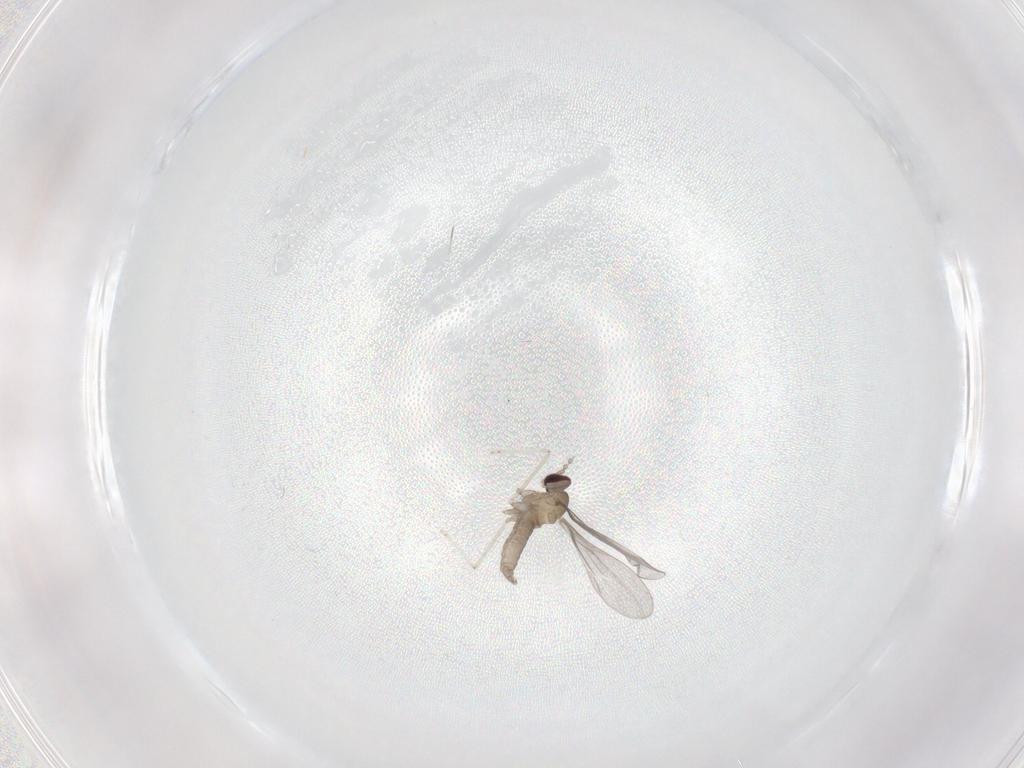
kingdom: Animalia
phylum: Arthropoda
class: Insecta
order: Diptera
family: Cecidomyiidae
